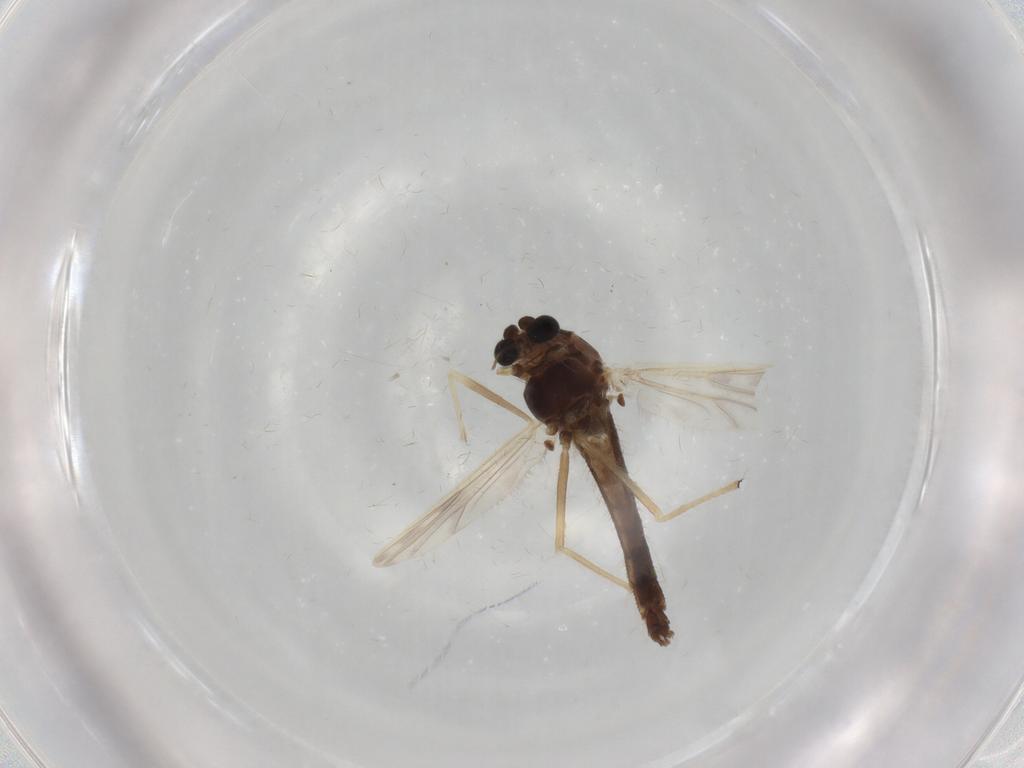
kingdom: Animalia
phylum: Arthropoda
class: Insecta
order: Diptera
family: Chironomidae
